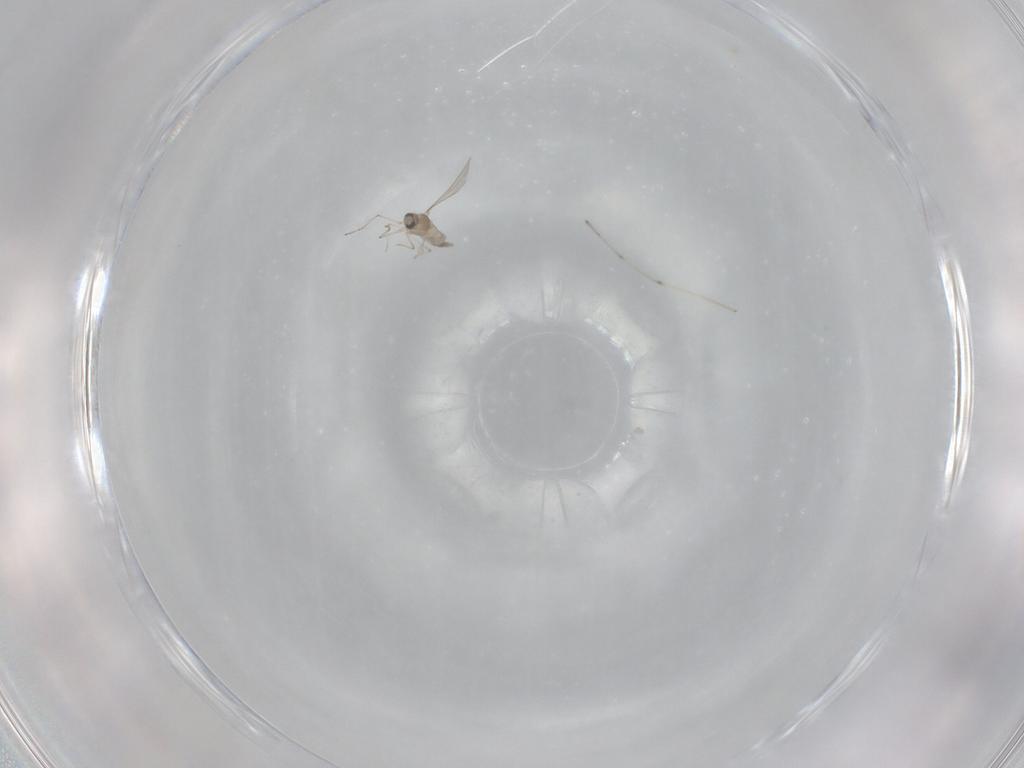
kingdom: Animalia
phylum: Arthropoda
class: Insecta
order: Diptera
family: Cecidomyiidae
